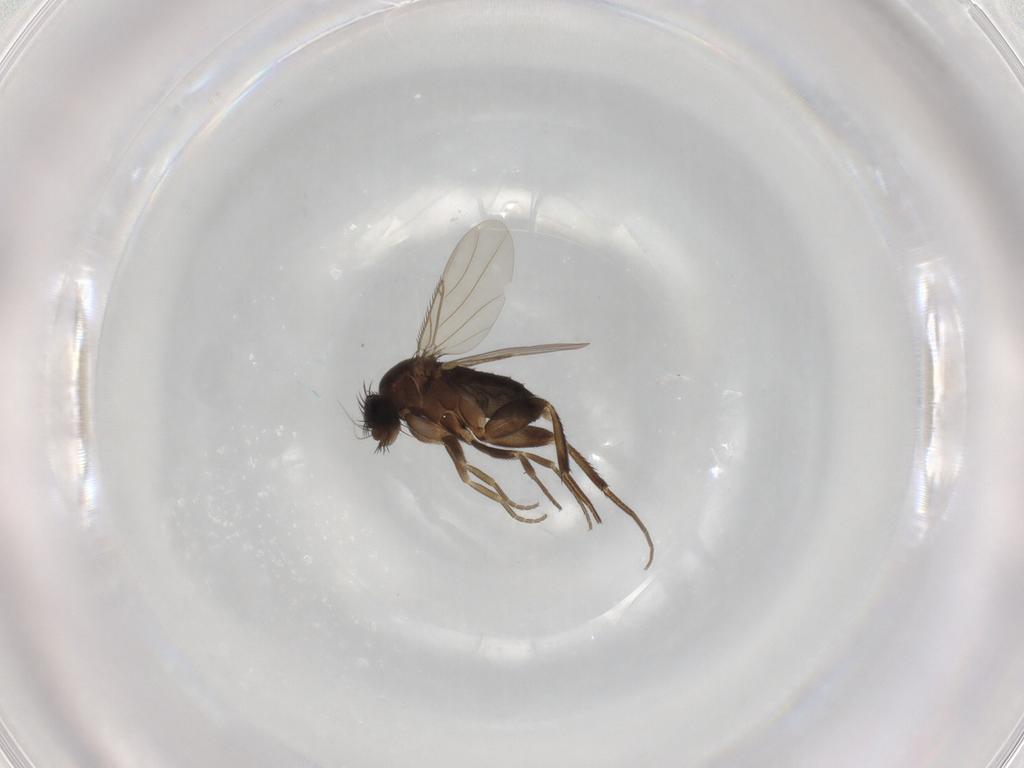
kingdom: Animalia
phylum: Arthropoda
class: Insecta
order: Diptera
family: Phoridae
